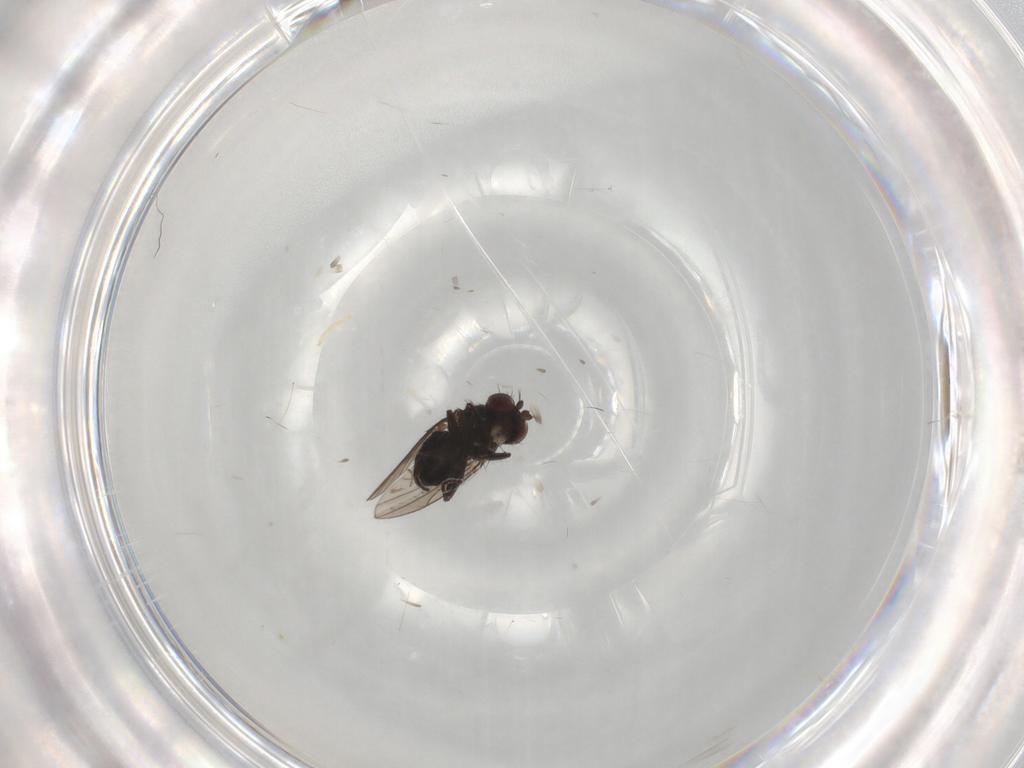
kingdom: Animalia
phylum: Arthropoda
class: Insecta
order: Diptera
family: Ephydridae
